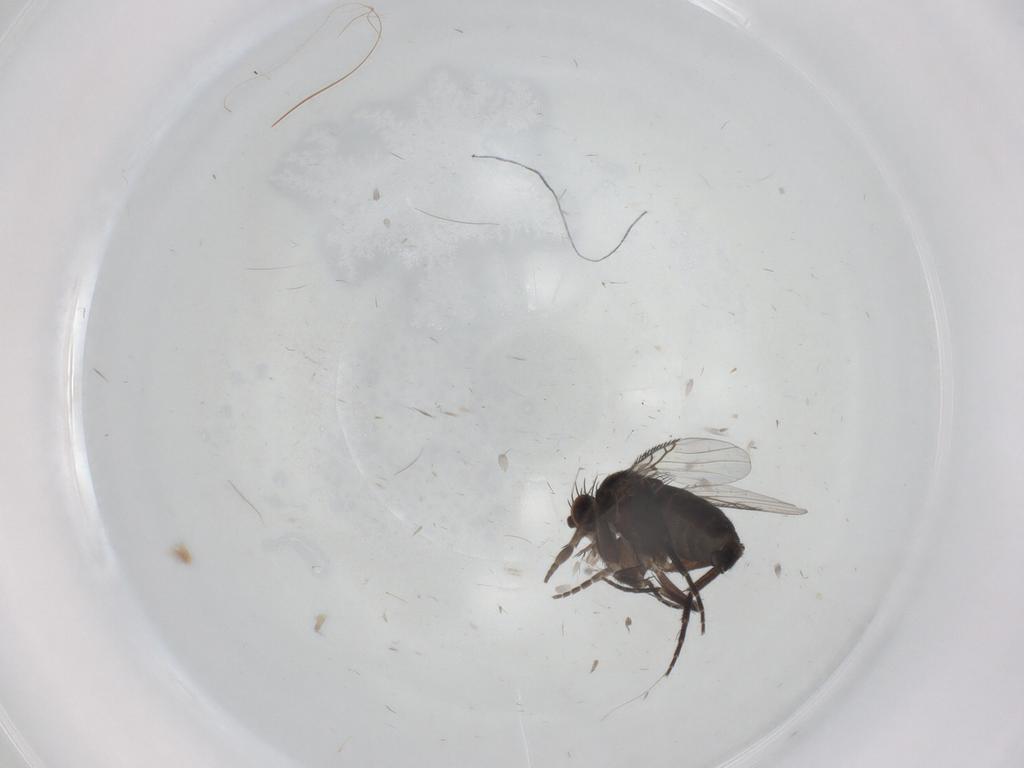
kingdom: Animalia
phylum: Arthropoda
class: Insecta
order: Diptera
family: Phoridae
